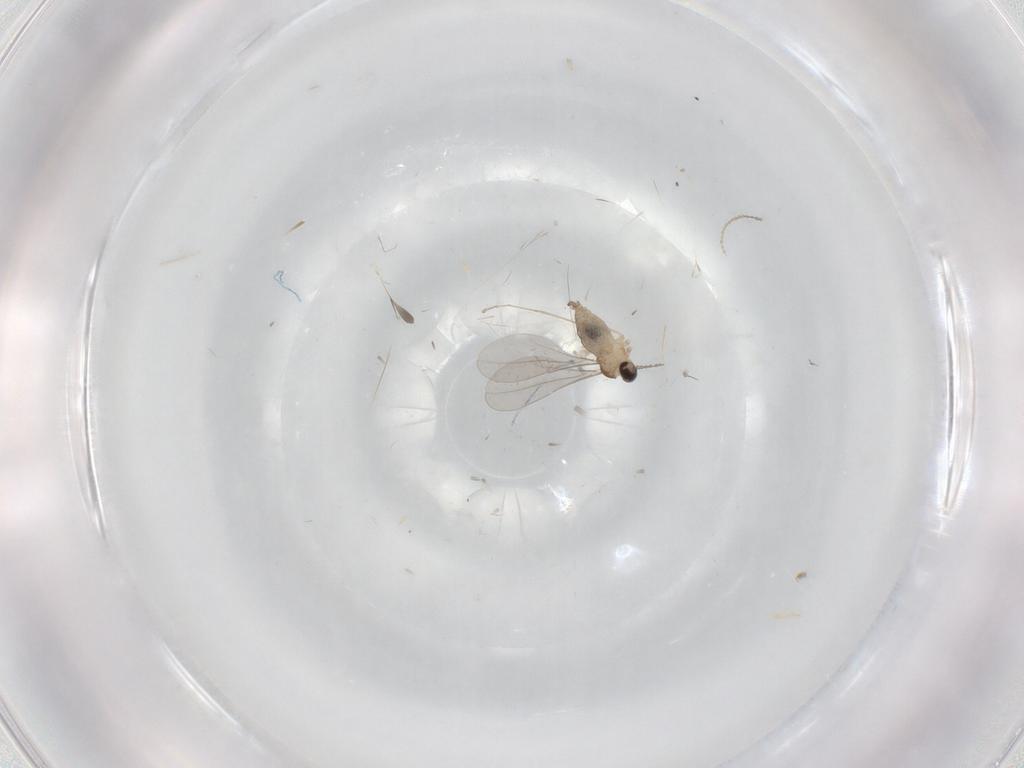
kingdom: Animalia
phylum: Arthropoda
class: Insecta
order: Diptera
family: Cecidomyiidae
